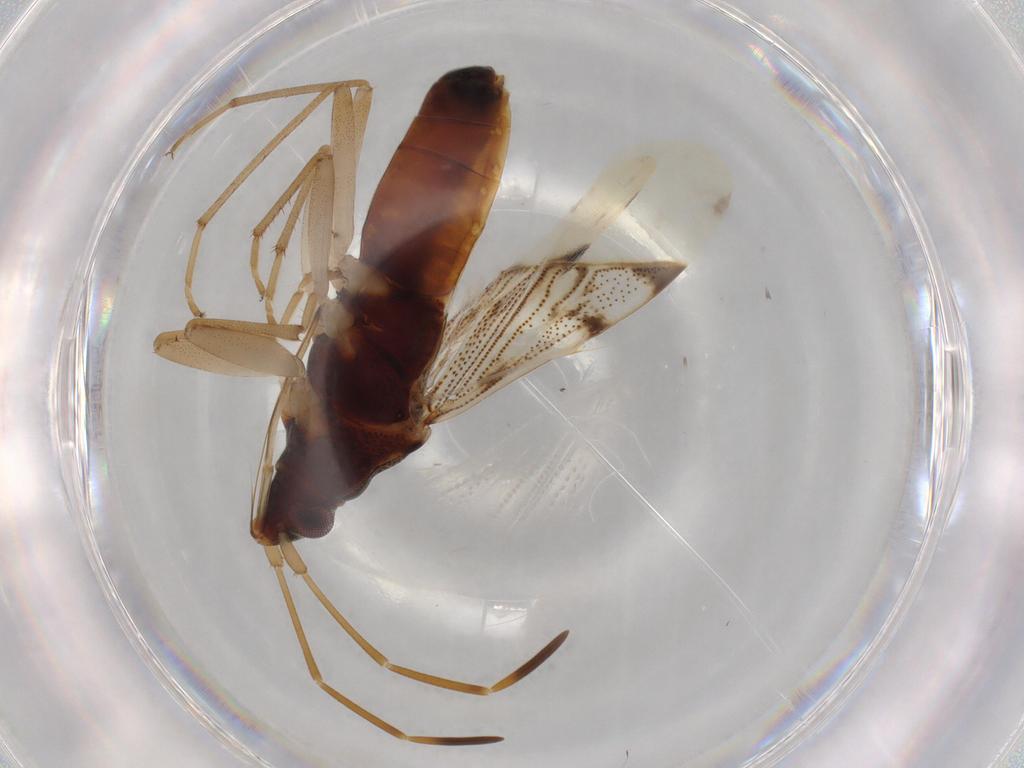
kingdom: Animalia
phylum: Arthropoda
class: Insecta
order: Hemiptera
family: Rhyparochromidae
